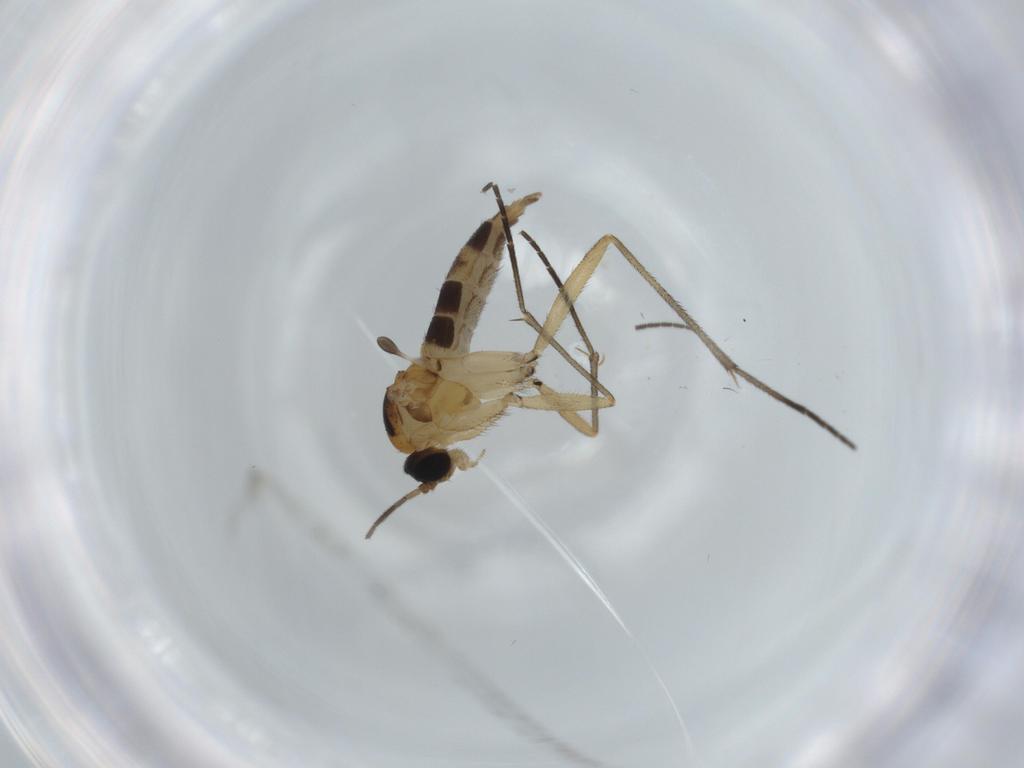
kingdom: Animalia
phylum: Arthropoda
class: Insecta
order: Diptera
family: Sciaridae
